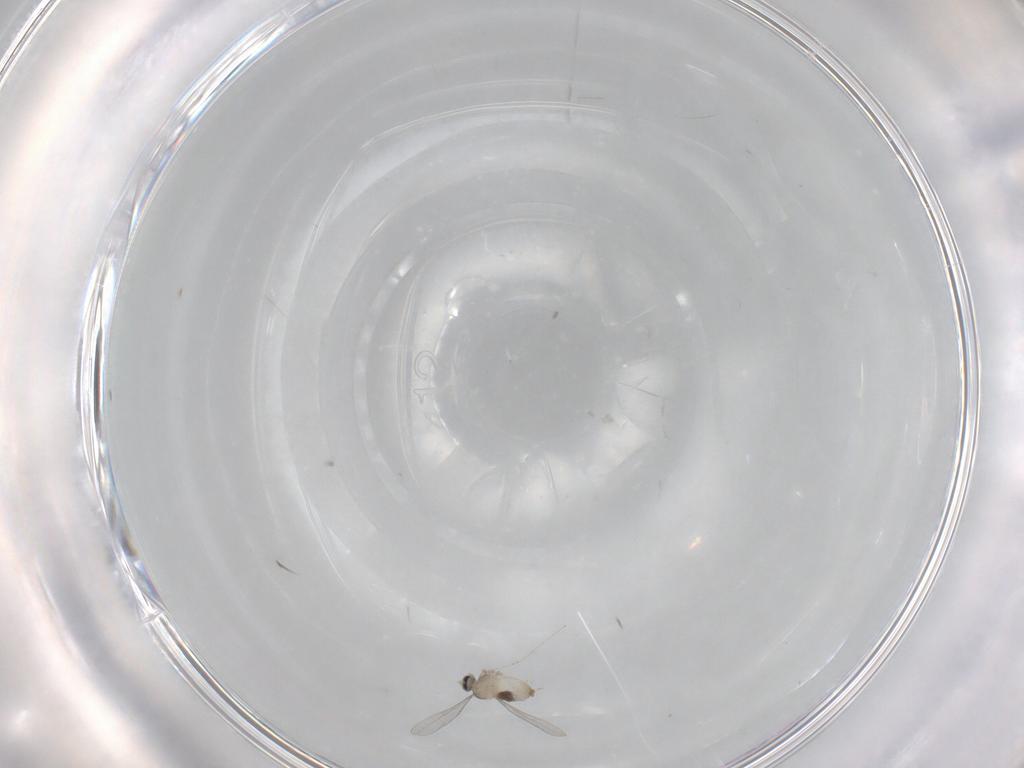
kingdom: Animalia
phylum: Arthropoda
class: Insecta
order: Diptera
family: Cecidomyiidae
